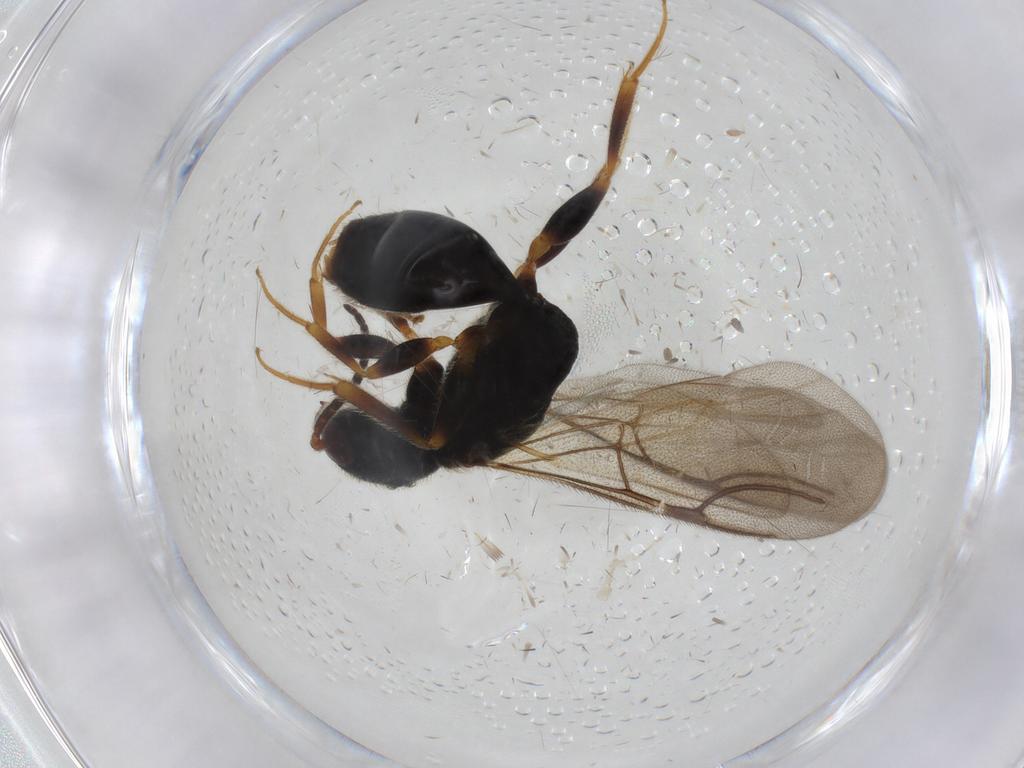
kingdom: Animalia
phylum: Arthropoda
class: Insecta
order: Hymenoptera
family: Bethylidae
